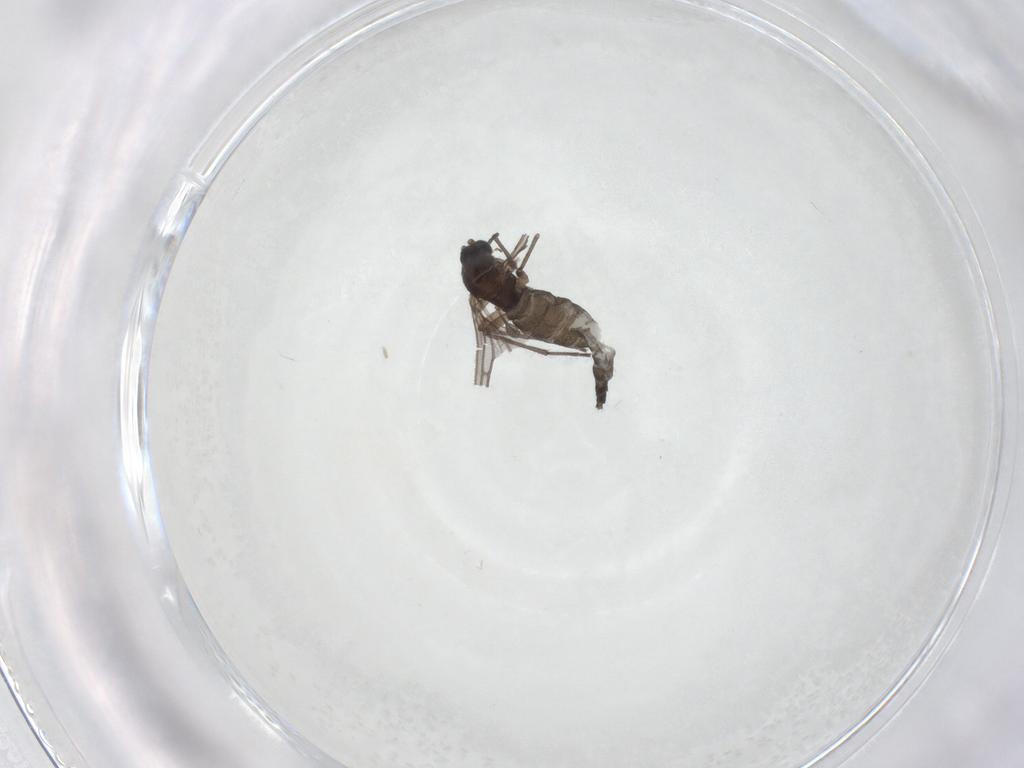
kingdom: Animalia
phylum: Arthropoda
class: Insecta
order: Diptera
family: Sciaridae
